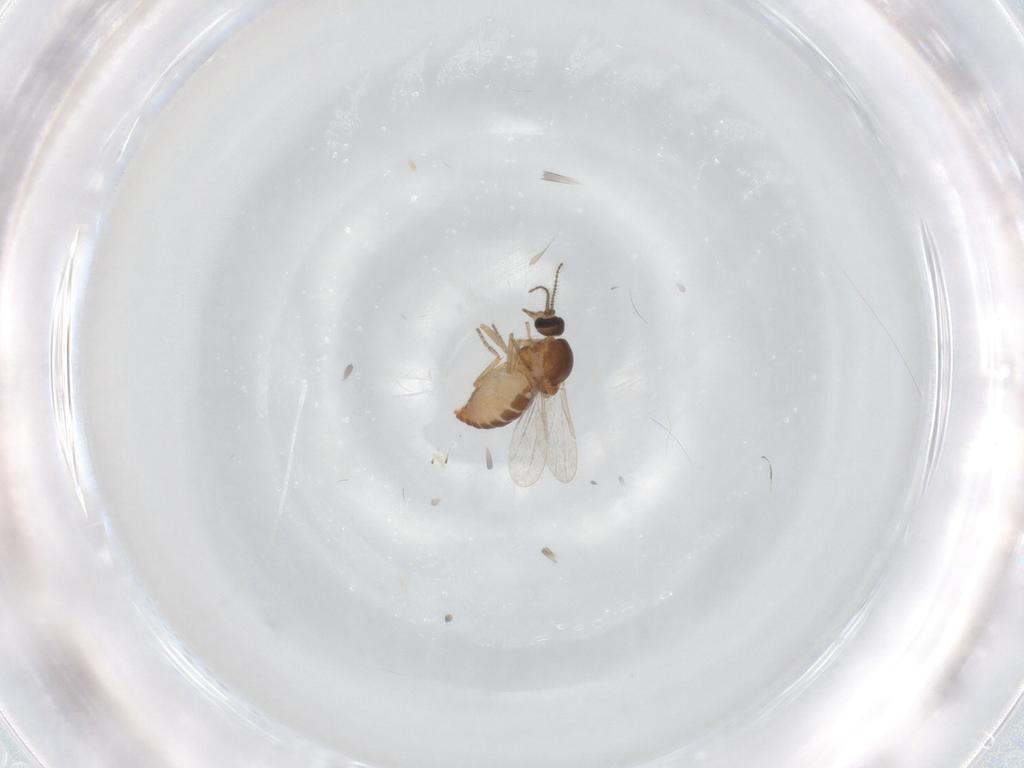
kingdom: Animalia
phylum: Arthropoda
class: Insecta
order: Diptera
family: Ceratopogonidae
